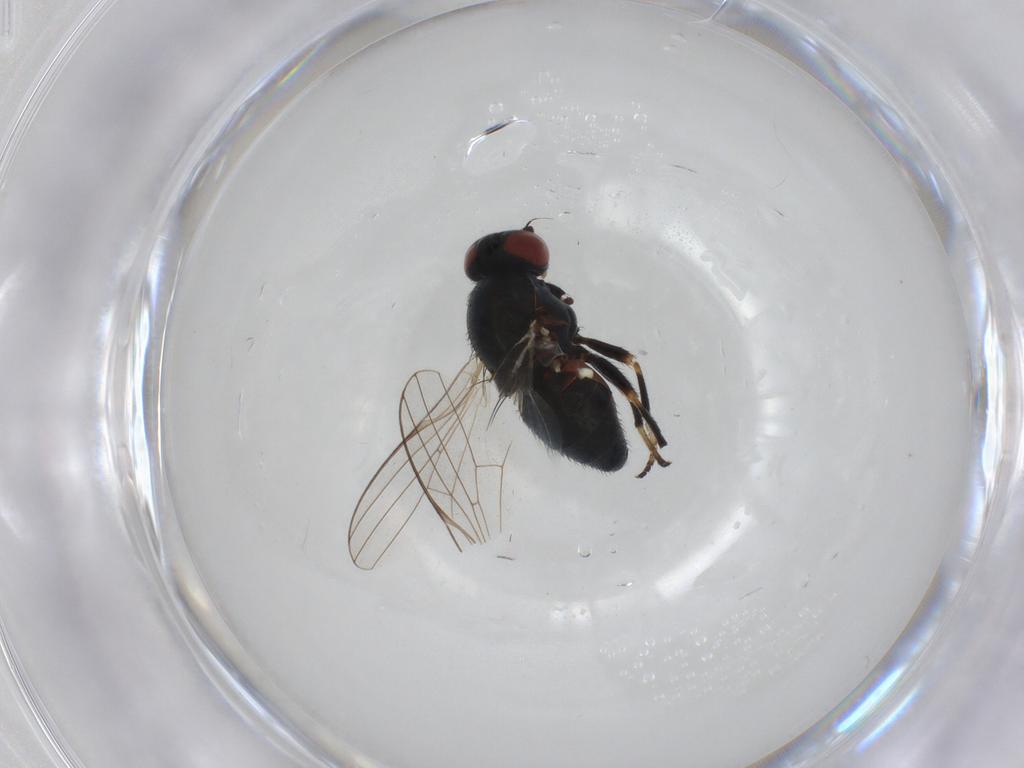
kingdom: Animalia
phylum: Arthropoda
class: Insecta
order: Diptera
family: Chamaemyiidae
